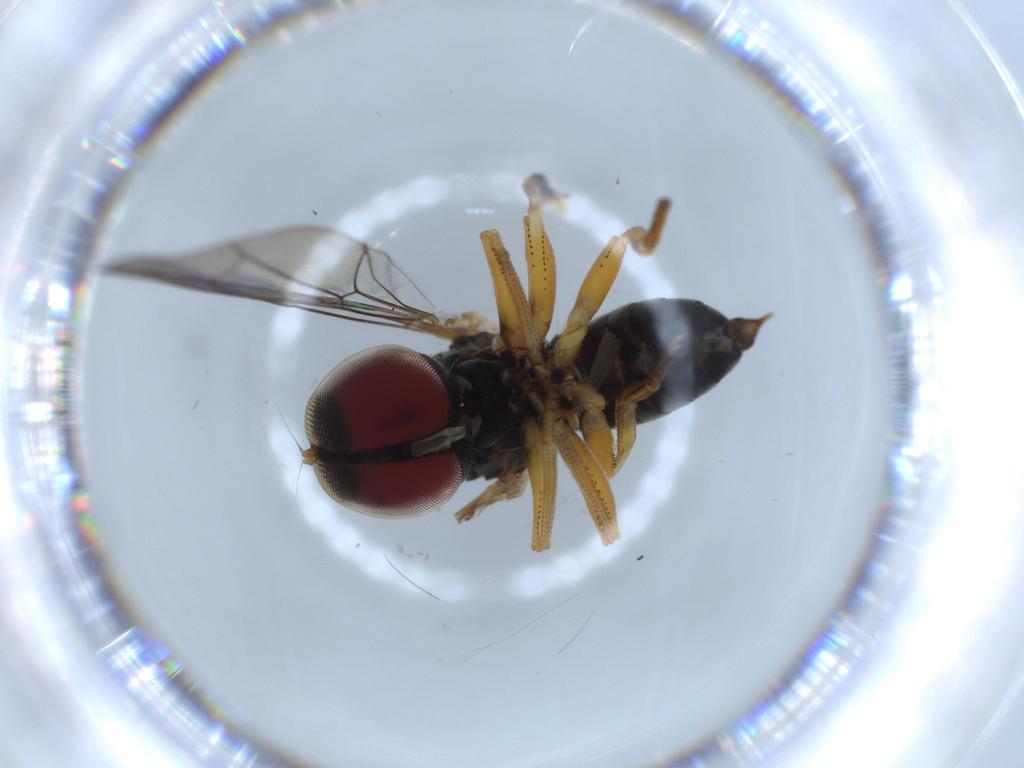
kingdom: Animalia
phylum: Arthropoda
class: Insecta
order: Diptera
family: Pipunculidae
